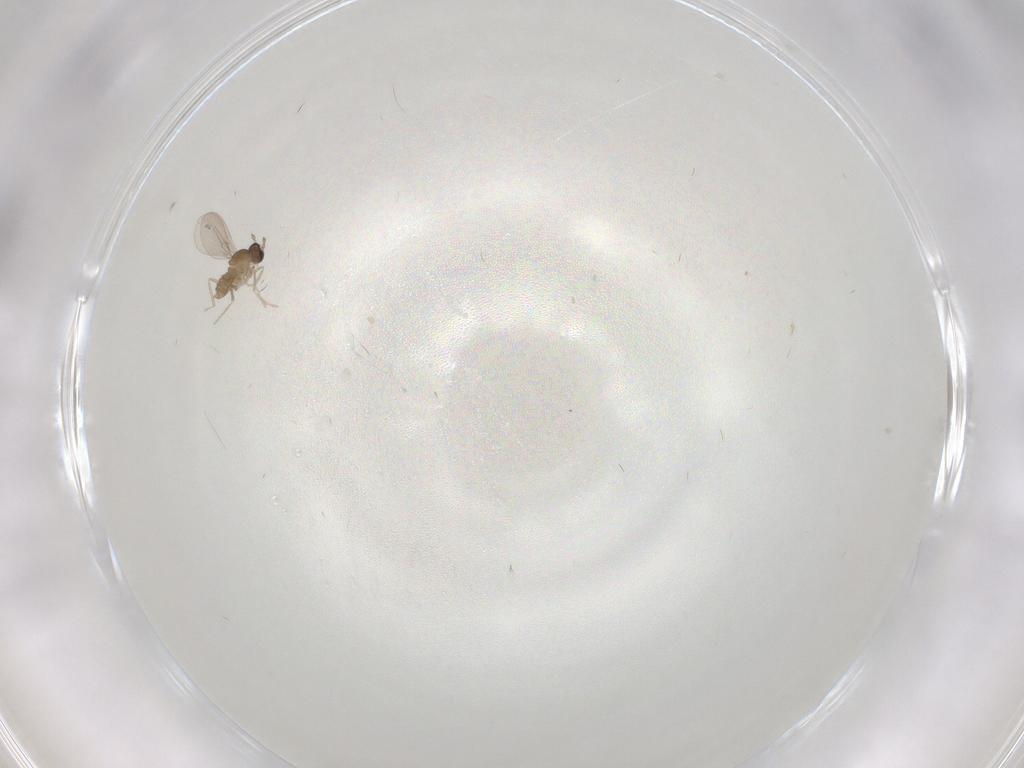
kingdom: Animalia
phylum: Arthropoda
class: Insecta
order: Diptera
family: Cecidomyiidae
